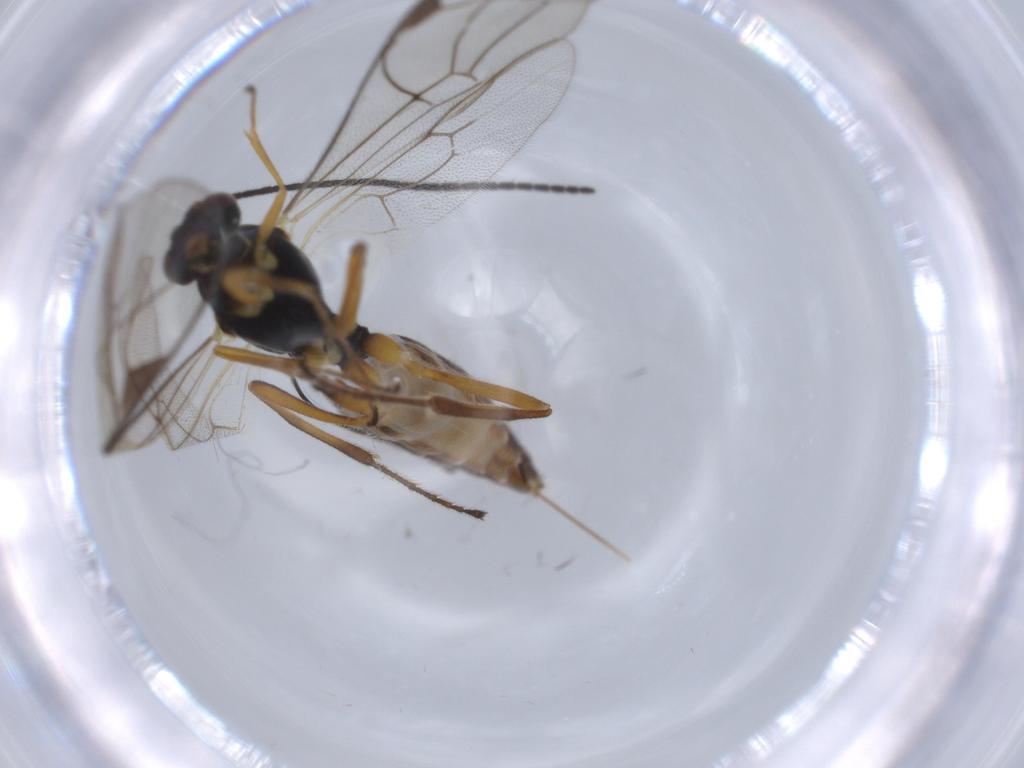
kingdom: Animalia
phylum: Arthropoda
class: Insecta
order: Hymenoptera
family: Ichneumonidae
